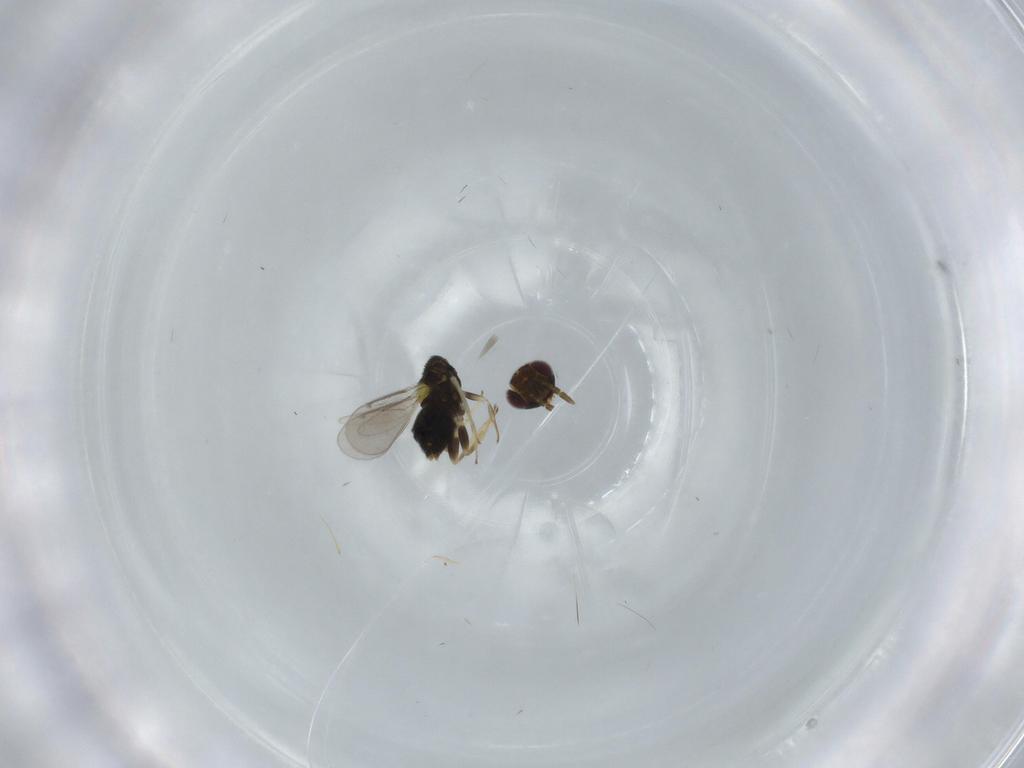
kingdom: Animalia
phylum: Arthropoda
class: Insecta
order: Hymenoptera
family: Aphelinidae
